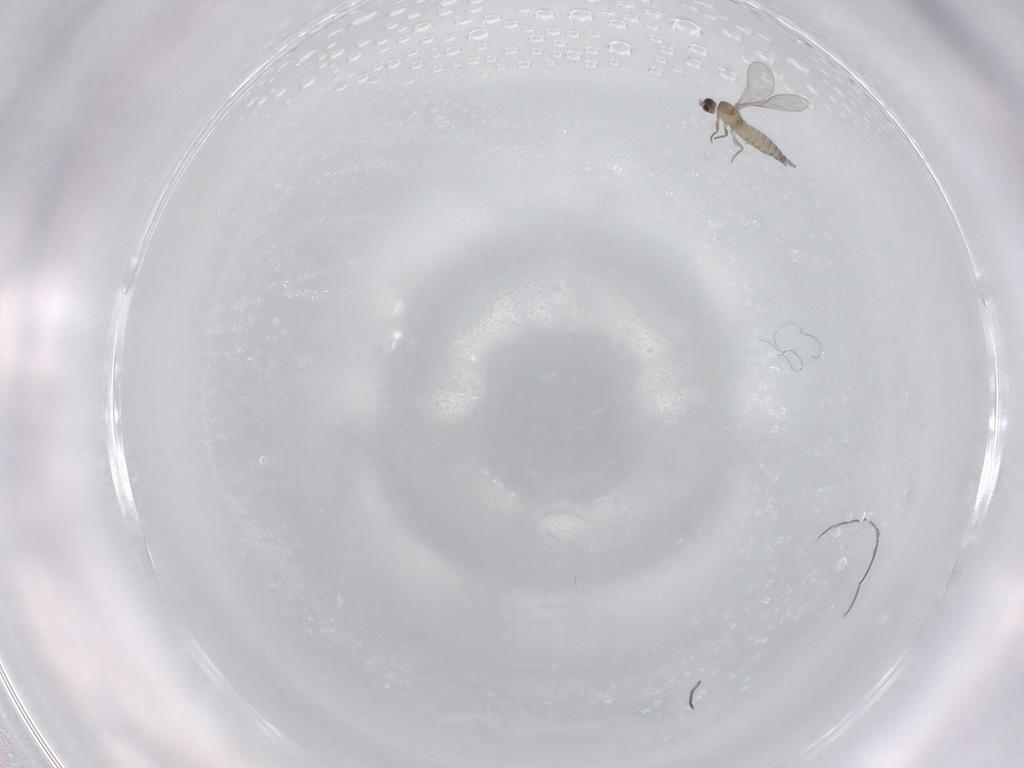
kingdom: Animalia
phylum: Arthropoda
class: Insecta
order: Diptera
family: Cecidomyiidae
